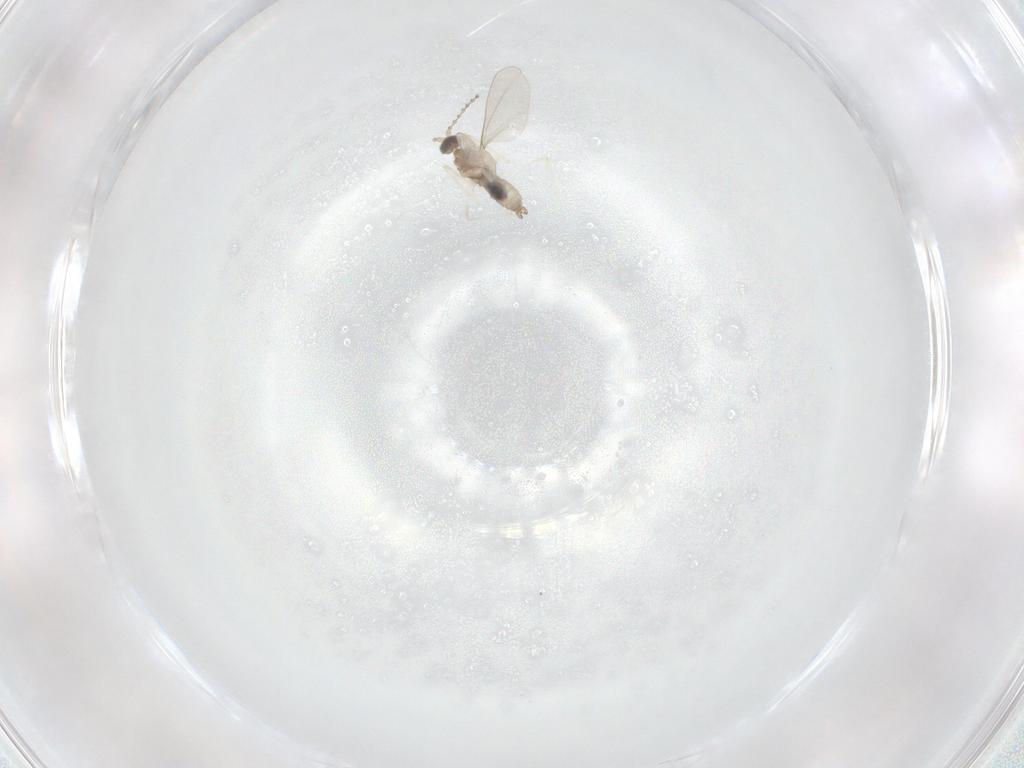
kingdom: Animalia
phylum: Arthropoda
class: Insecta
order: Diptera
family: Cecidomyiidae
